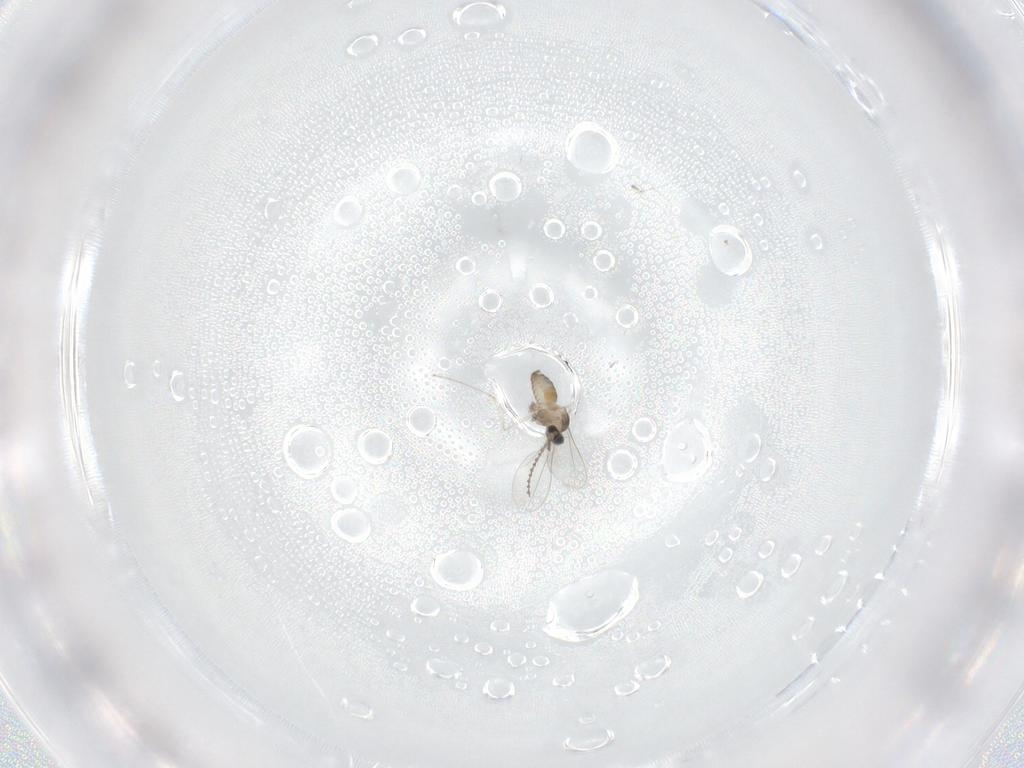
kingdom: Animalia
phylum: Arthropoda
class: Insecta
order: Diptera
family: Cecidomyiidae
